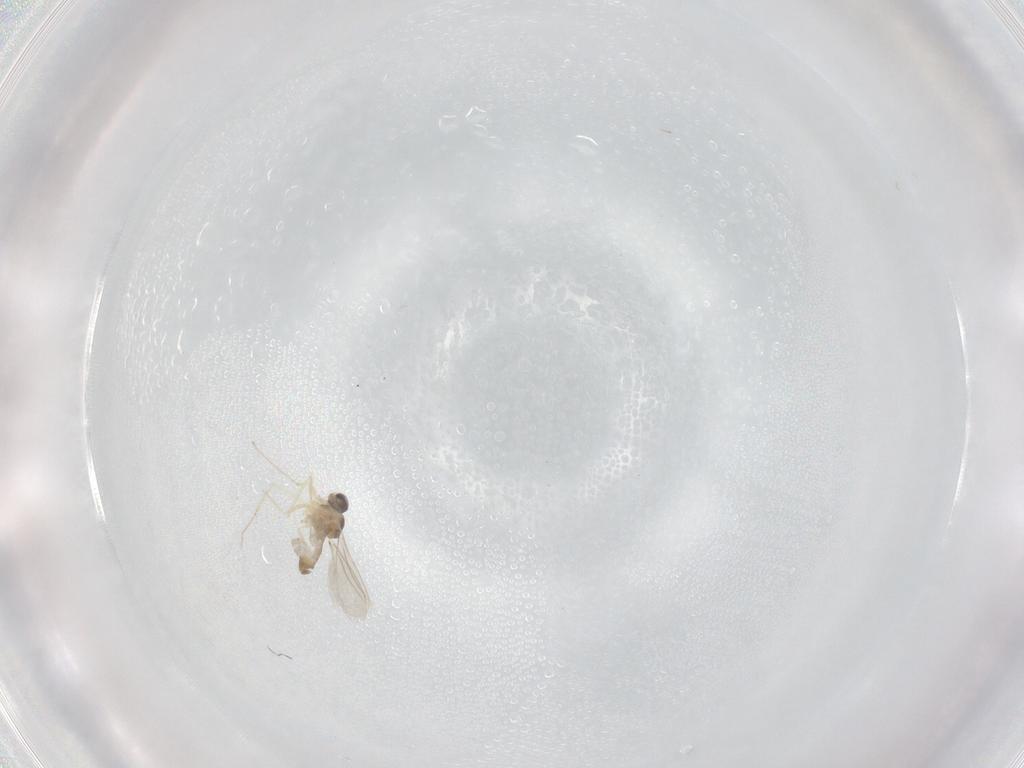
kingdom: Animalia
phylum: Arthropoda
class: Insecta
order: Diptera
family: Cecidomyiidae
